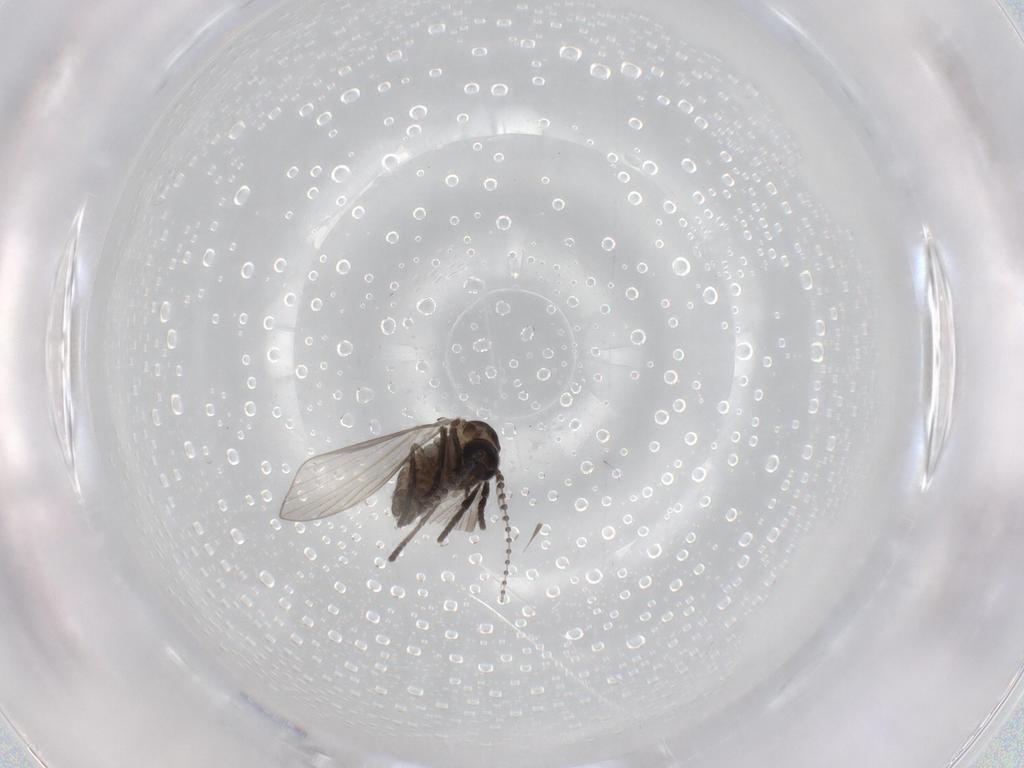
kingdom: Animalia
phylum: Arthropoda
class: Insecta
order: Diptera
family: Psychodidae
